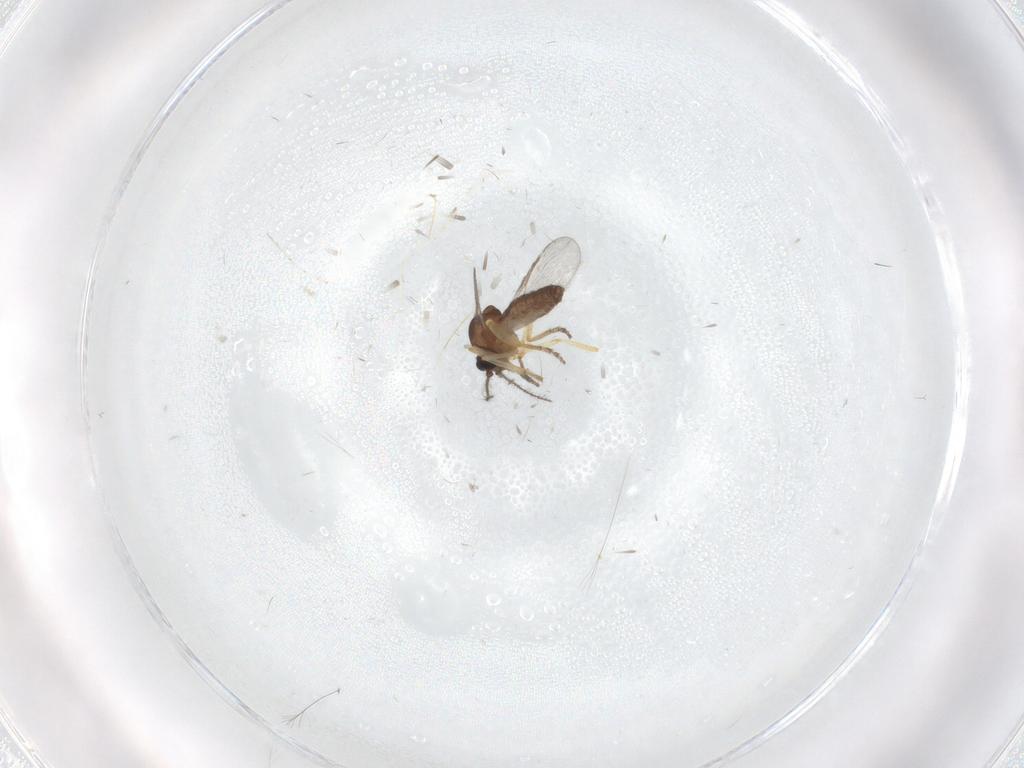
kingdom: Animalia
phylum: Arthropoda
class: Insecta
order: Diptera
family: Ceratopogonidae
